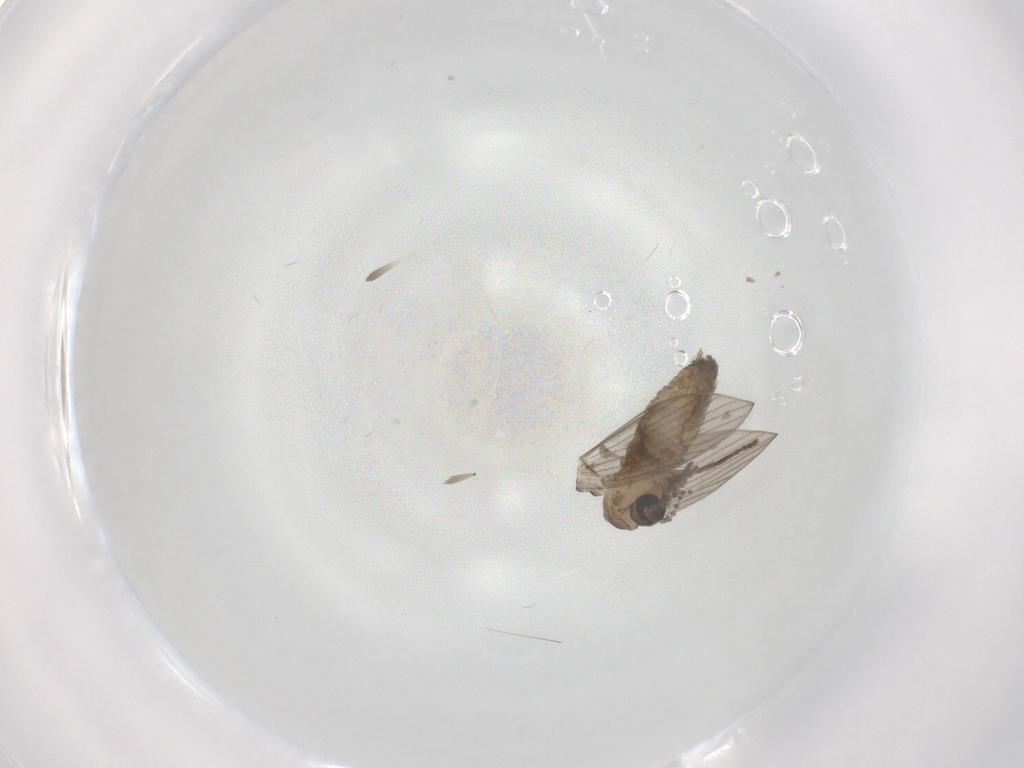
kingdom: Animalia
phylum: Arthropoda
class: Insecta
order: Diptera
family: Psychodidae
